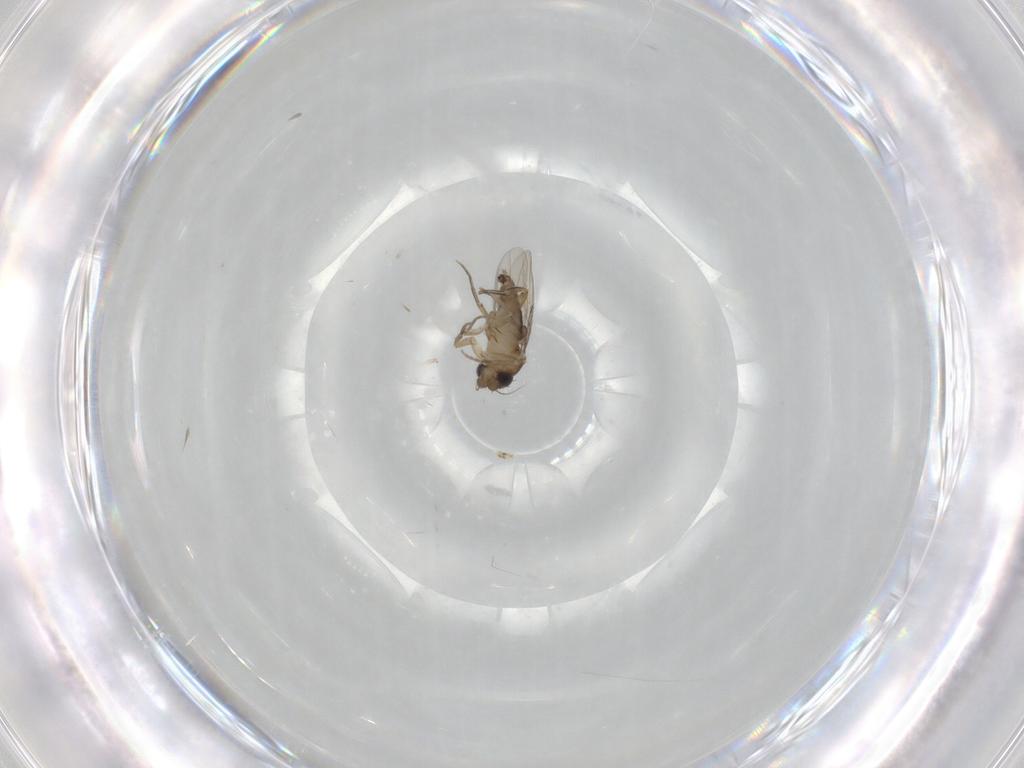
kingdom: Animalia
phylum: Arthropoda
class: Insecta
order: Diptera
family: Phoridae
